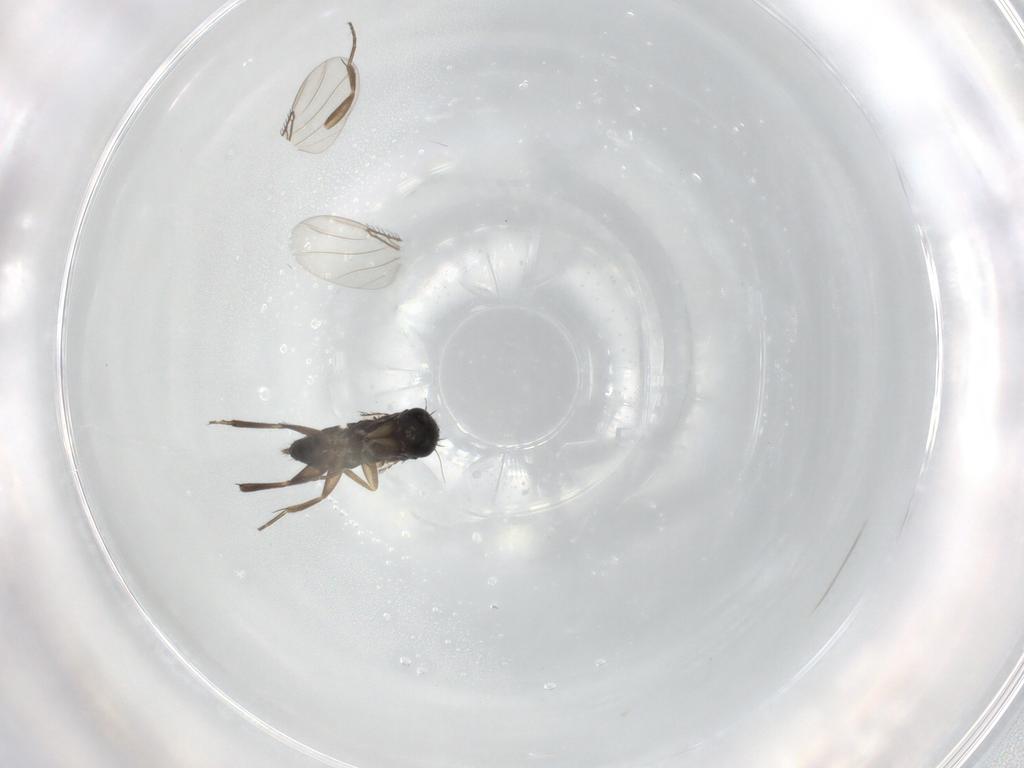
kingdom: Animalia
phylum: Arthropoda
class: Insecta
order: Diptera
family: Phoridae
